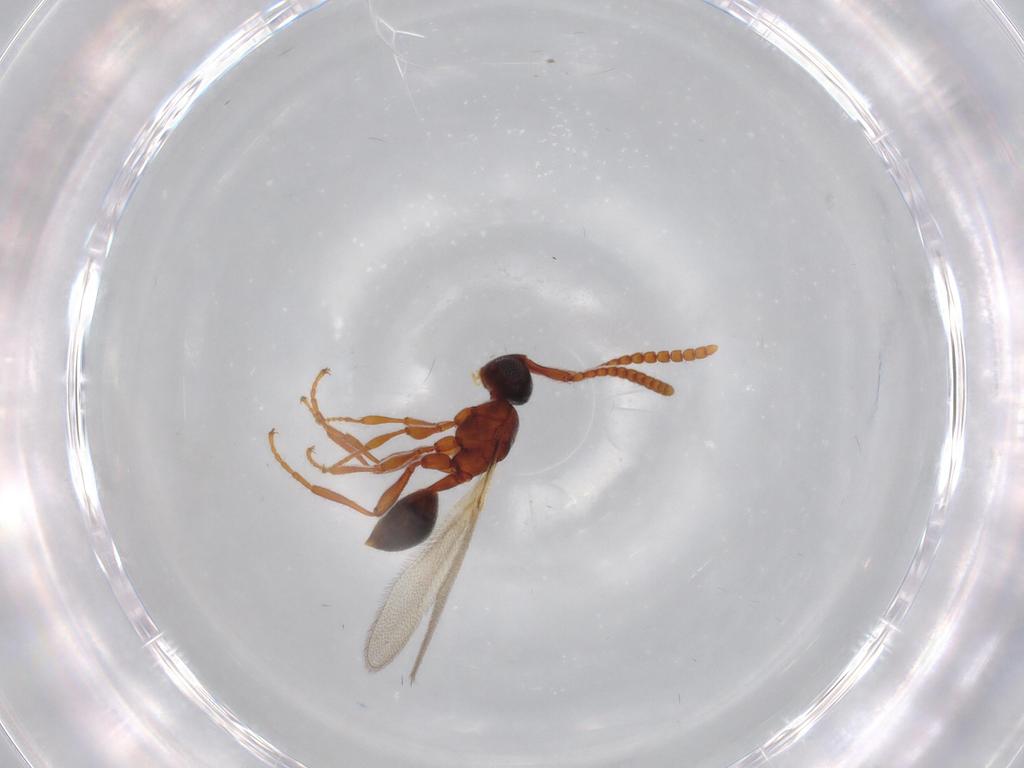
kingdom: Animalia
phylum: Arthropoda
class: Insecta
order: Hymenoptera
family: Diapriidae
